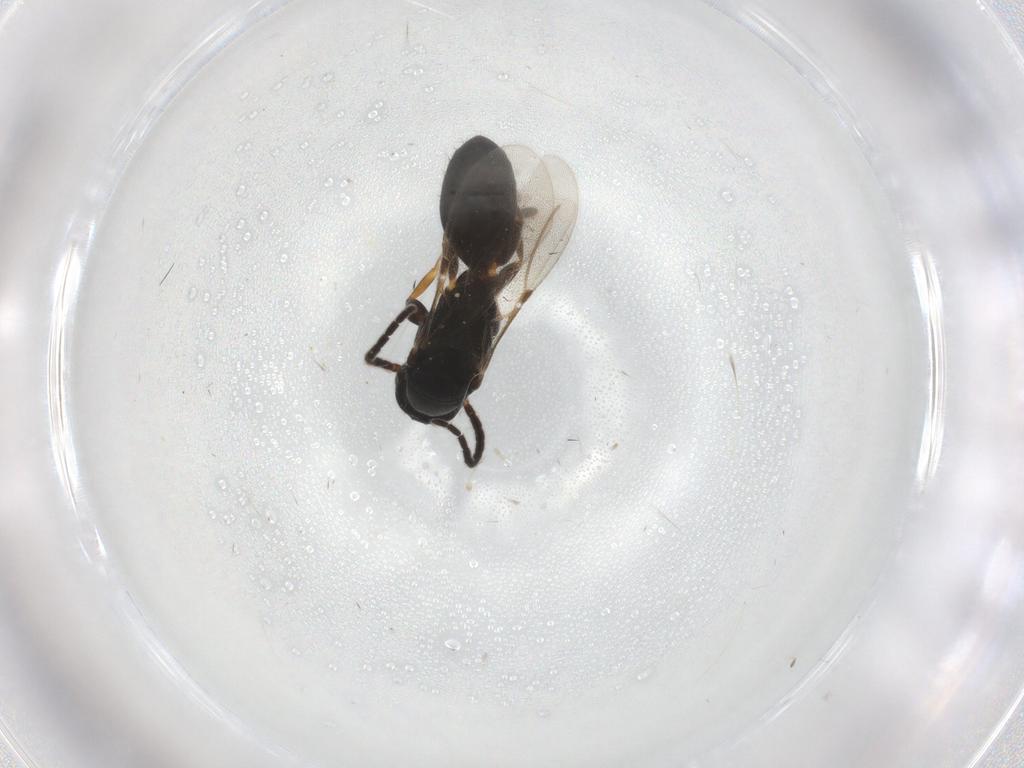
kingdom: Animalia
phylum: Arthropoda
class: Insecta
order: Hymenoptera
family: Bethylidae
